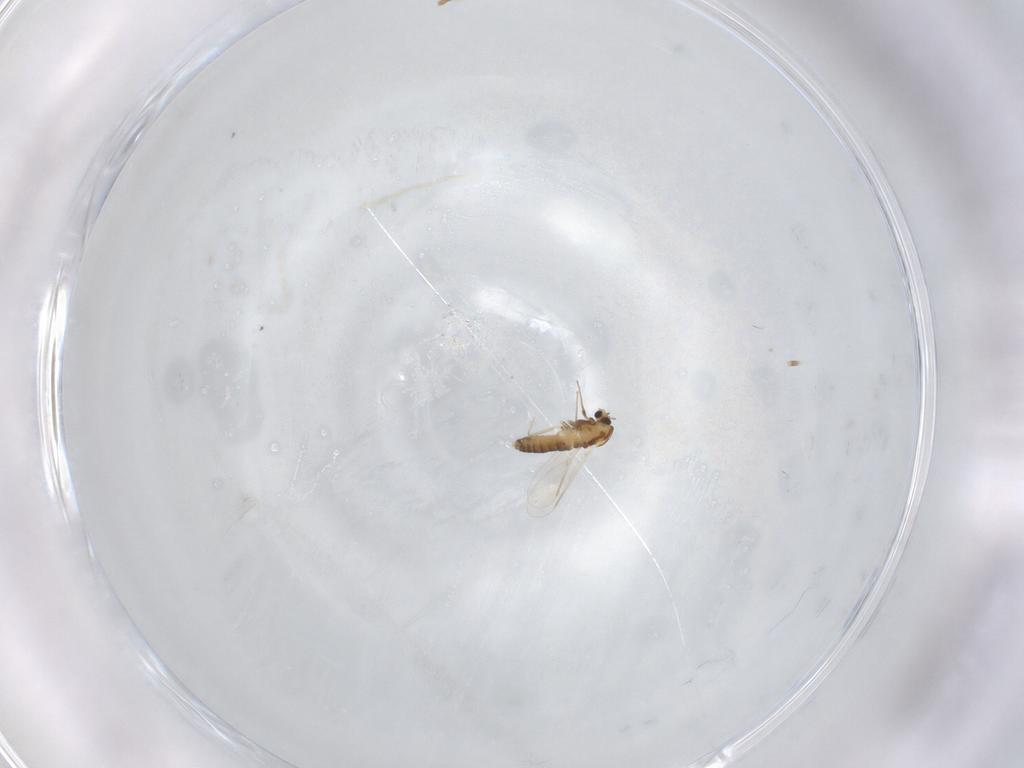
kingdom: Animalia
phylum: Arthropoda
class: Insecta
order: Diptera
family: Chironomidae
